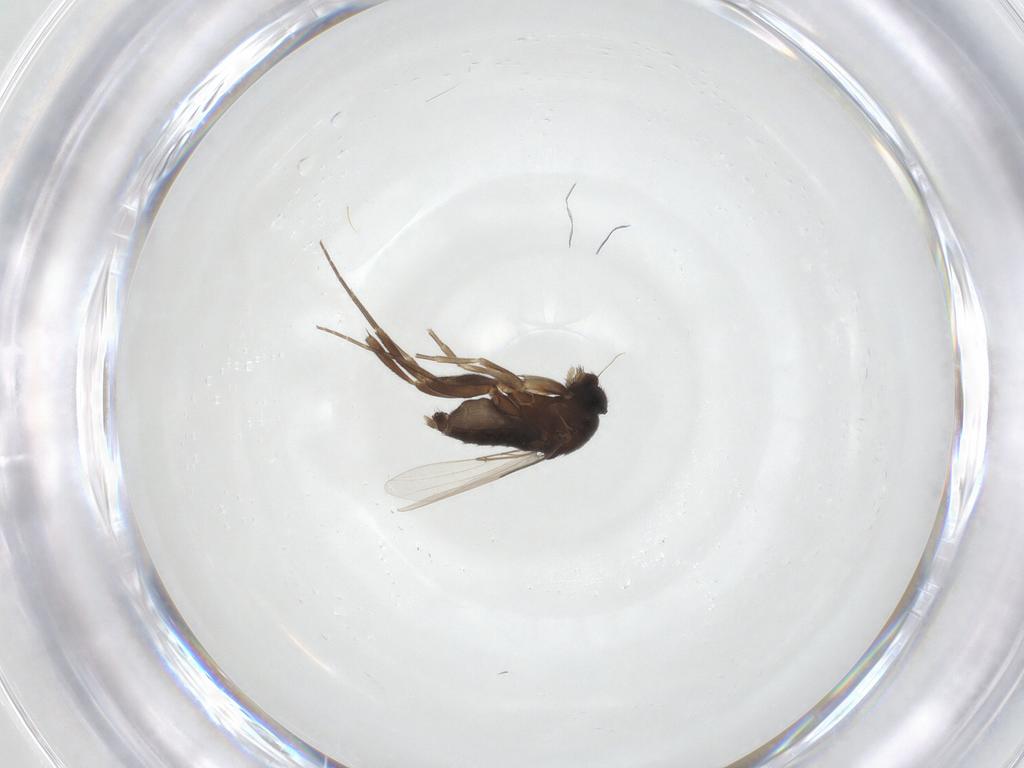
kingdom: Animalia
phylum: Arthropoda
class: Insecta
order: Diptera
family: Phoridae
